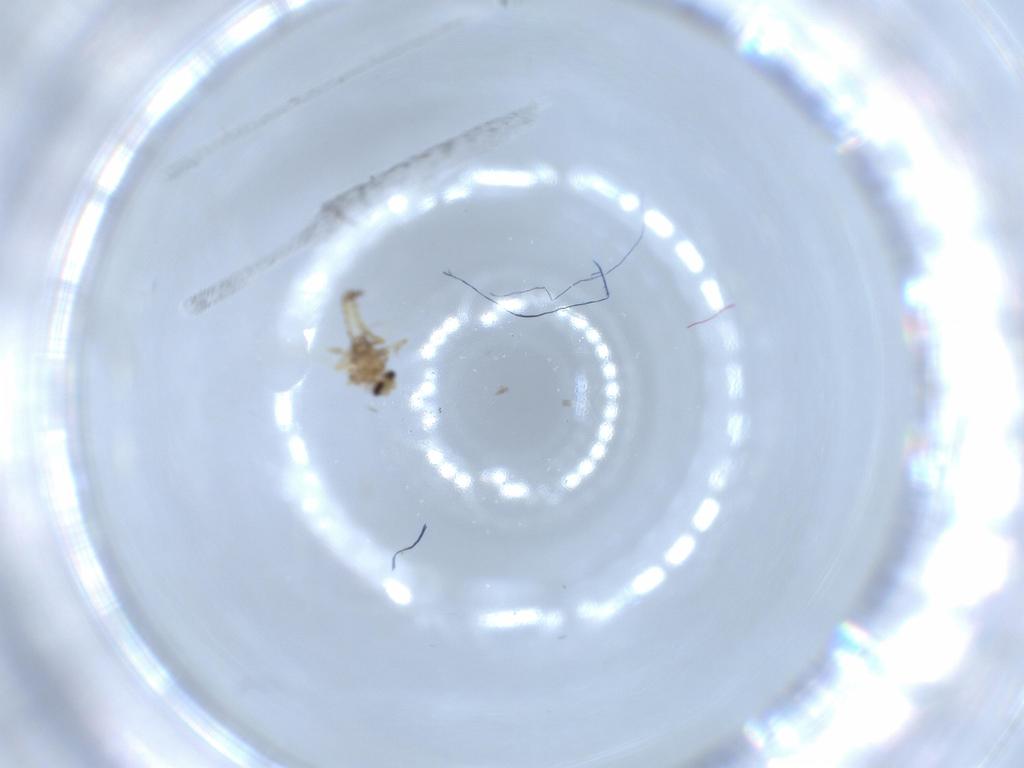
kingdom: Animalia
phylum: Arthropoda
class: Insecta
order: Diptera
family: Ceratopogonidae
